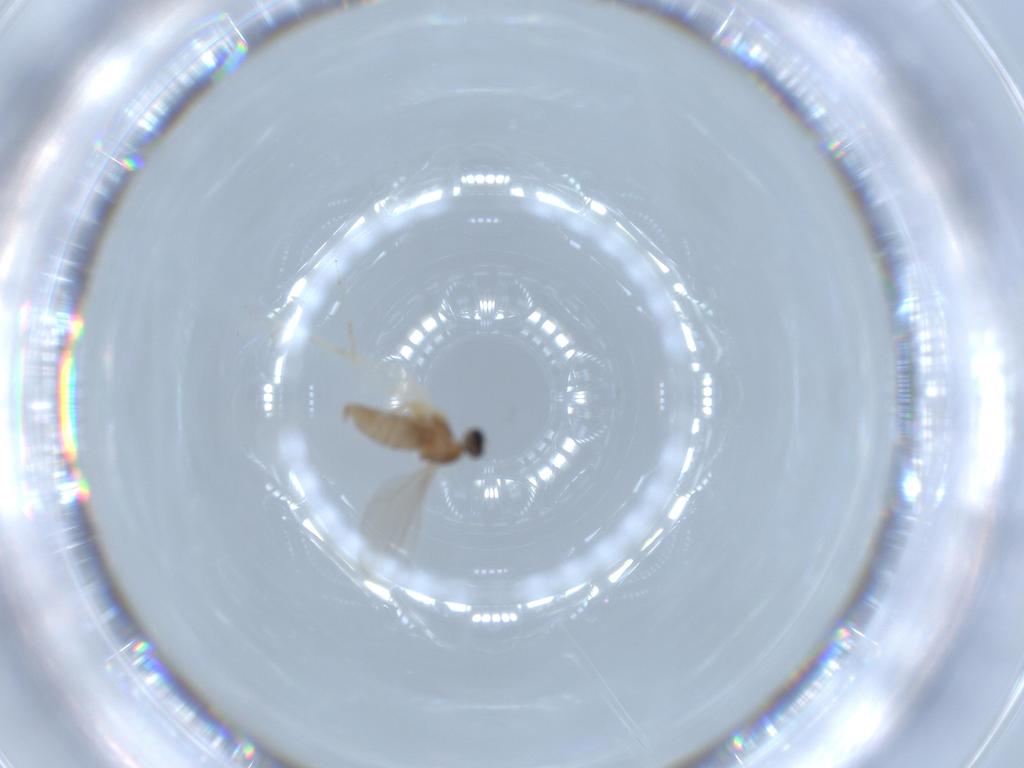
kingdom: Animalia
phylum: Arthropoda
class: Insecta
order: Diptera
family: Cecidomyiidae
